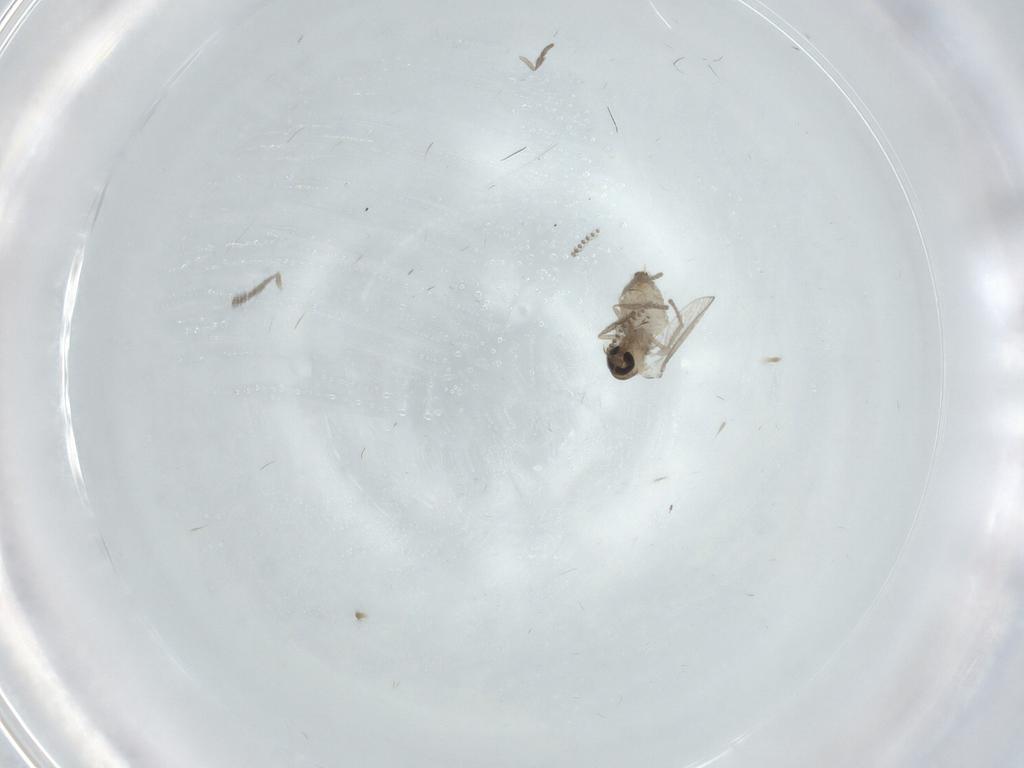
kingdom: Animalia
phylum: Arthropoda
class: Insecta
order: Diptera
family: Psychodidae
